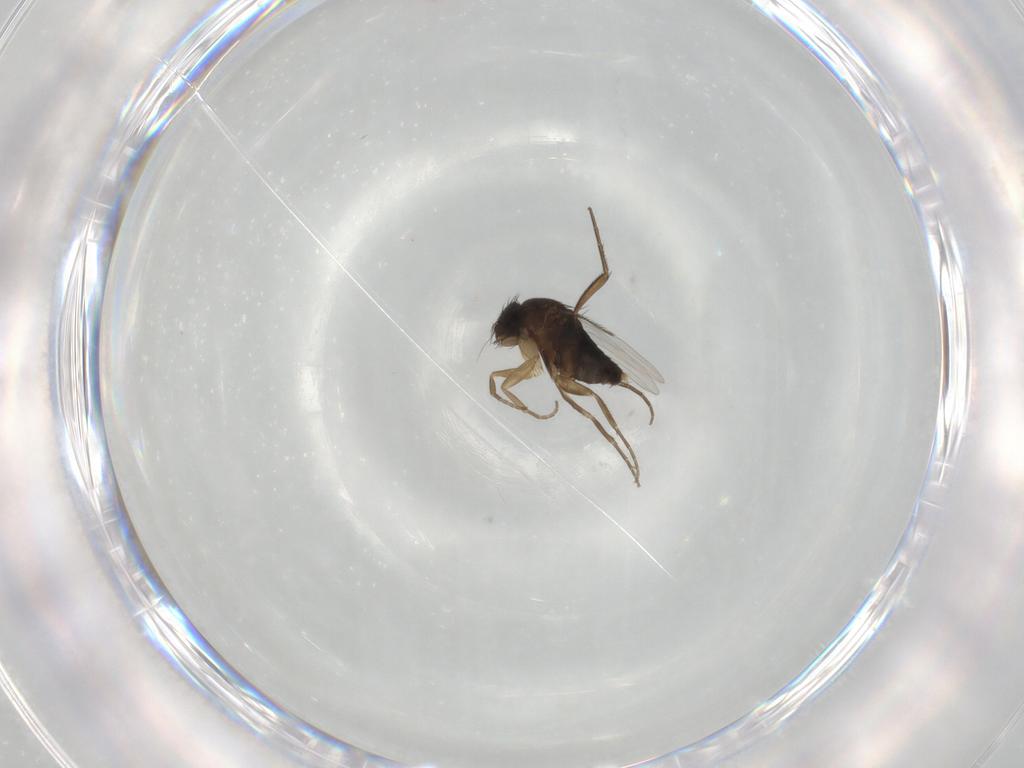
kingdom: Animalia
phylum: Arthropoda
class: Insecta
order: Diptera
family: Phoridae
